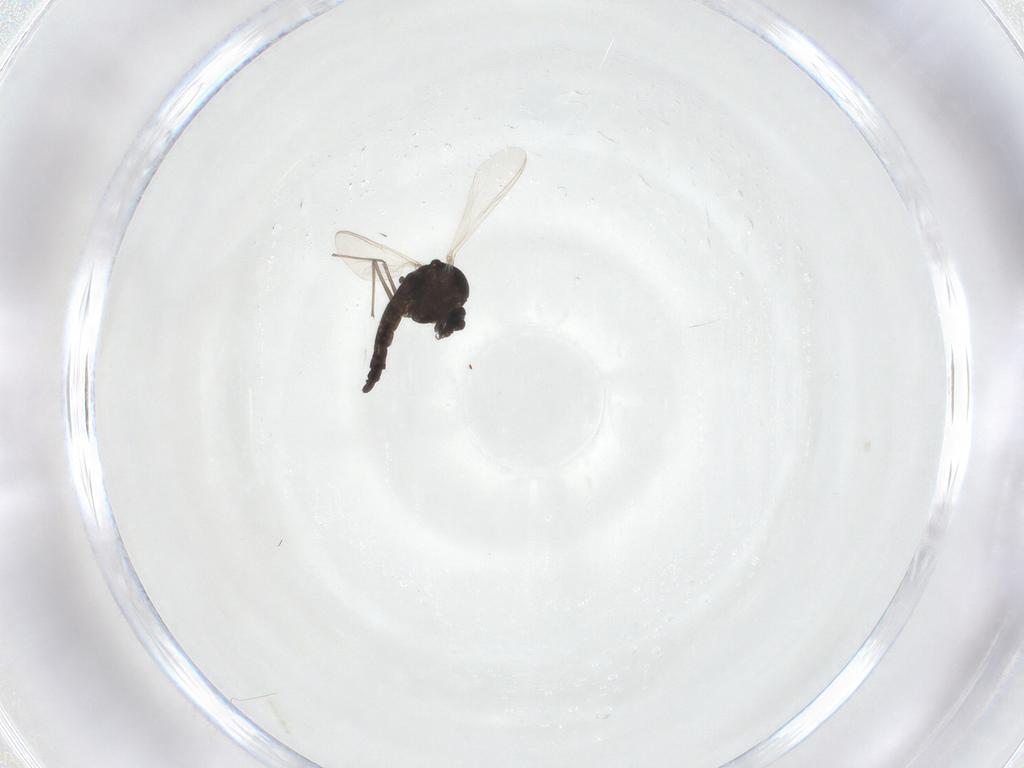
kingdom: Animalia
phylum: Arthropoda
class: Insecta
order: Diptera
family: Chironomidae
